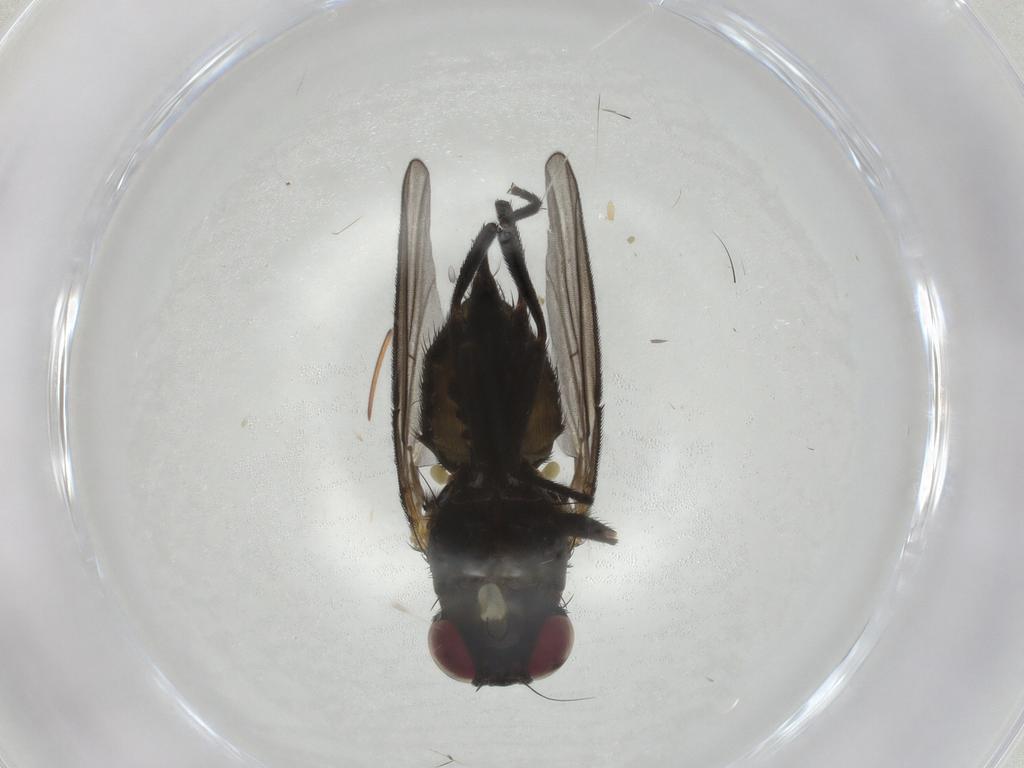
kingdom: Animalia
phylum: Arthropoda
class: Insecta
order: Diptera
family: Agromyzidae
